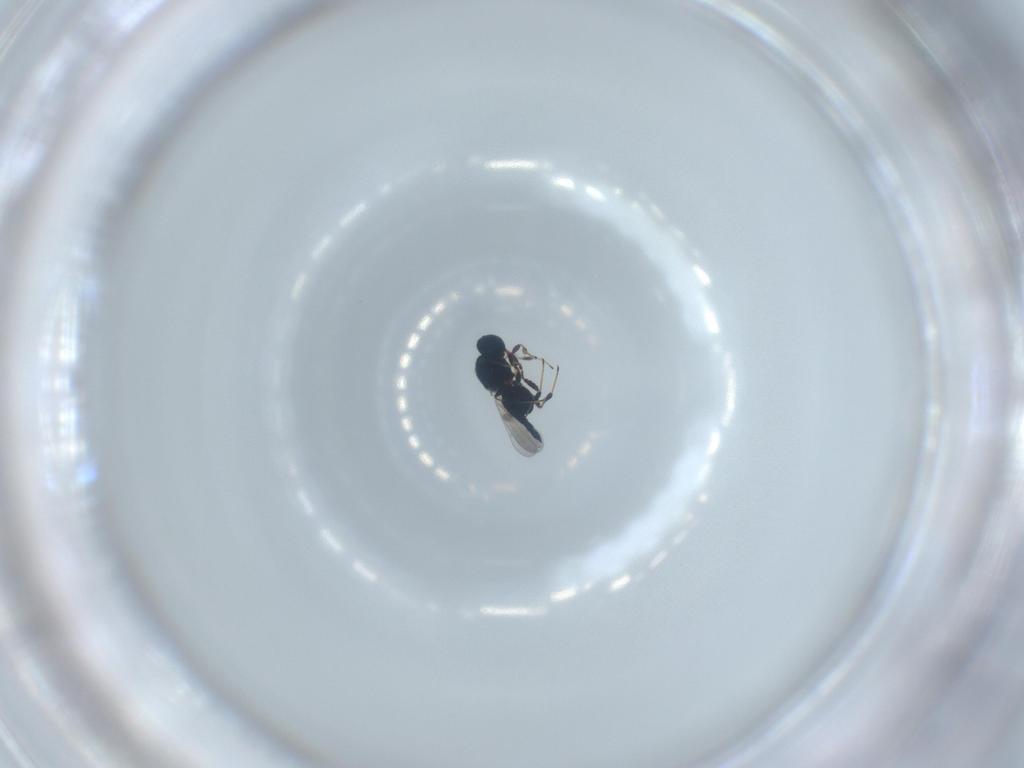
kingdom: Animalia
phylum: Arthropoda
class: Insecta
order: Hymenoptera
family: Platygastridae
